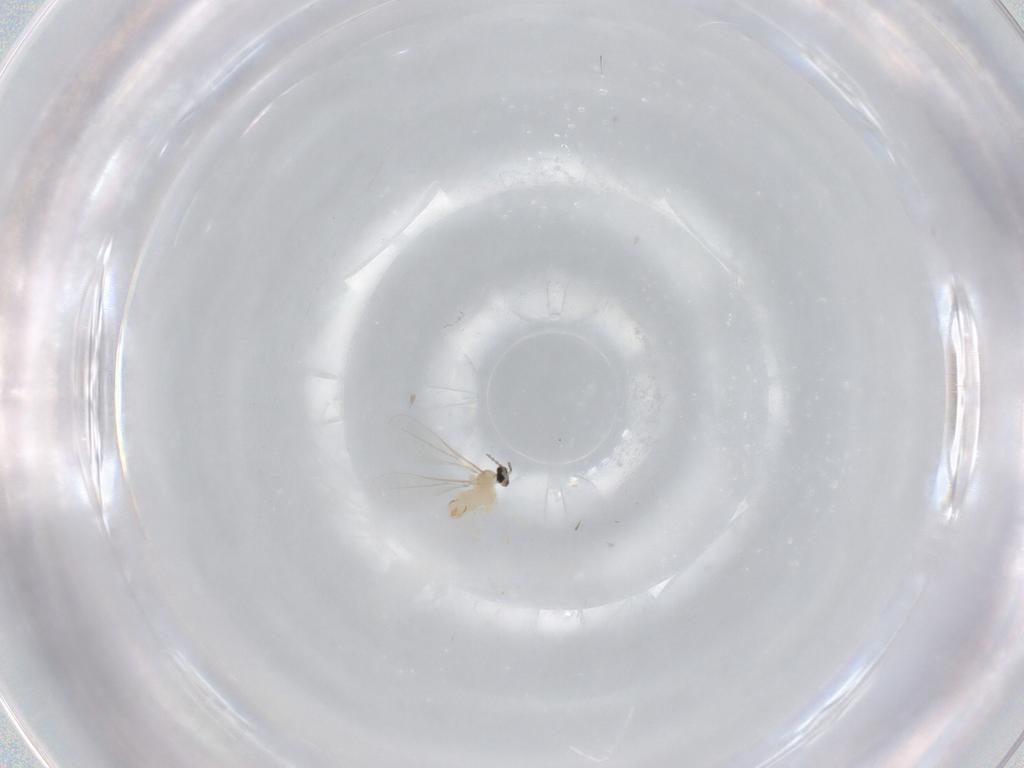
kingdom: Animalia
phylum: Arthropoda
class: Insecta
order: Diptera
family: Cecidomyiidae
